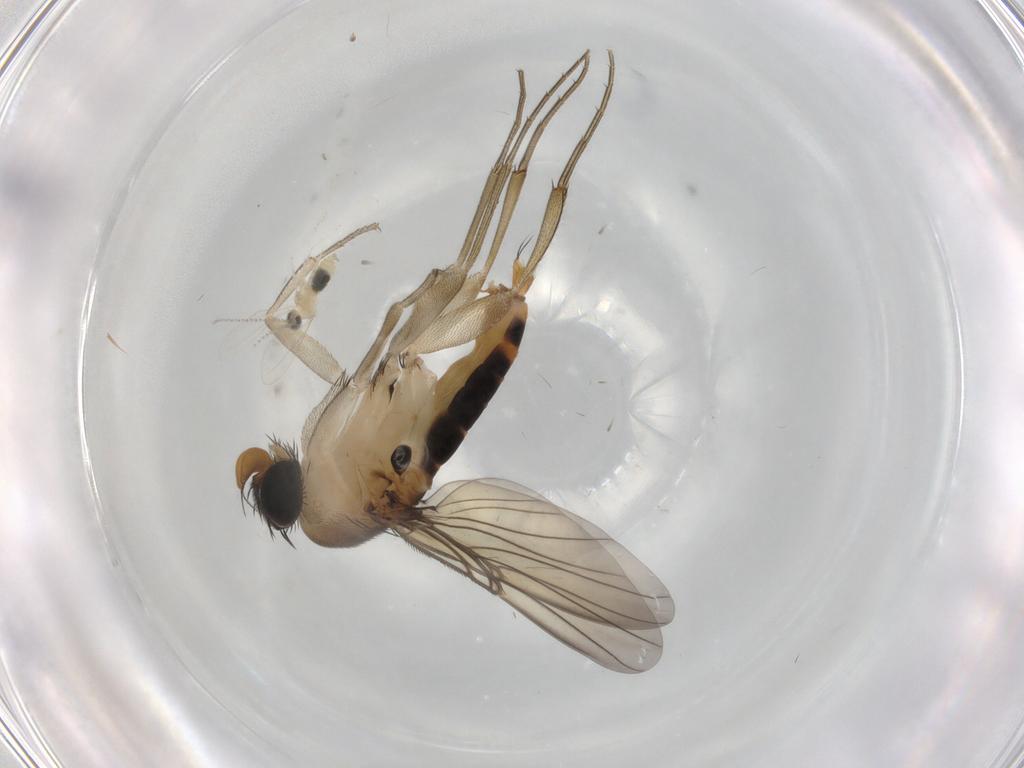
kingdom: Animalia
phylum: Arthropoda
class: Insecta
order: Diptera
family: Phoridae
